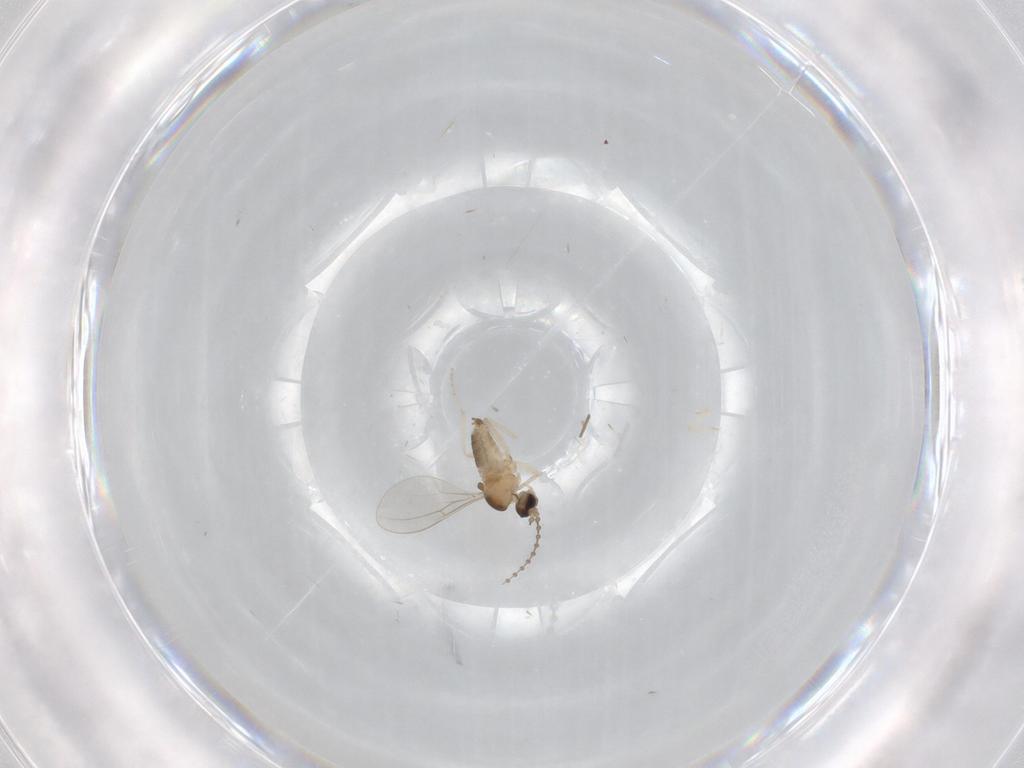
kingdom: Animalia
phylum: Arthropoda
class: Insecta
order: Diptera
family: Cecidomyiidae
